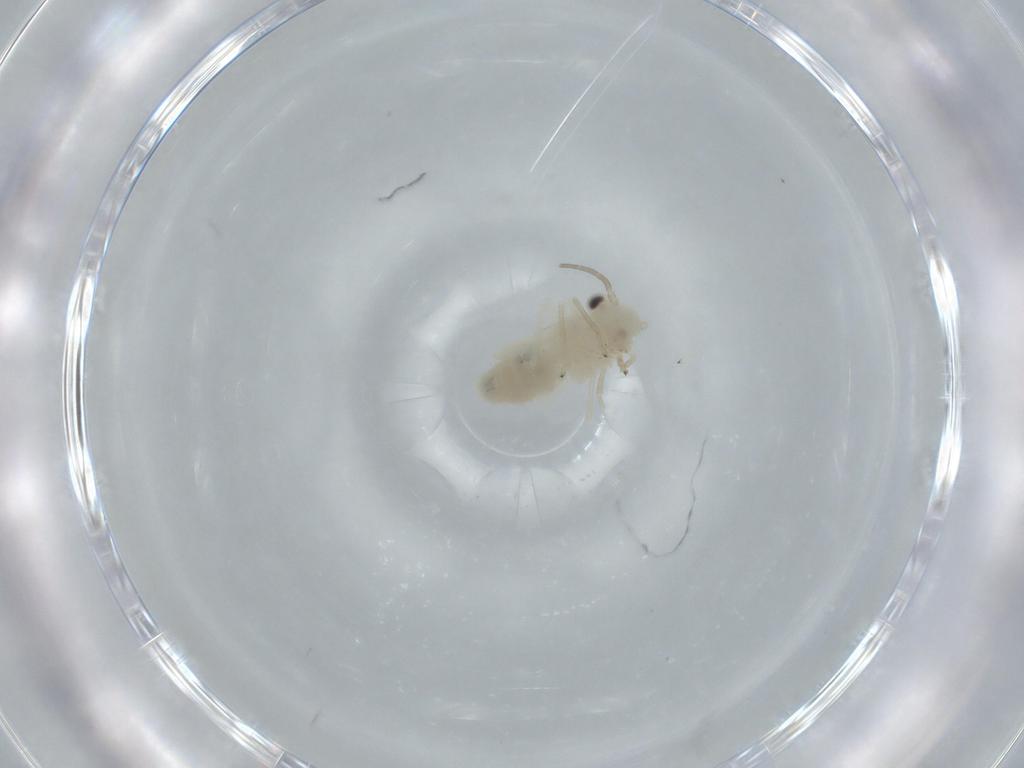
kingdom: Animalia
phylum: Arthropoda
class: Insecta
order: Psocodea
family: Caeciliusidae
